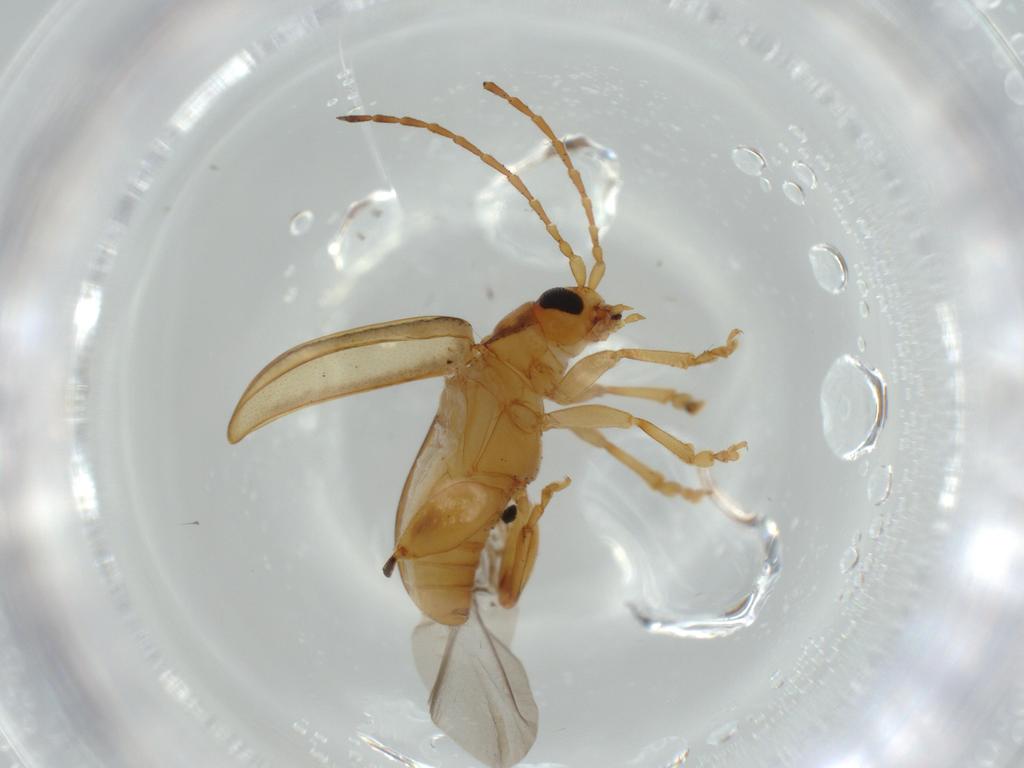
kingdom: Animalia
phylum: Arthropoda
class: Insecta
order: Coleoptera
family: Chrysomelidae
